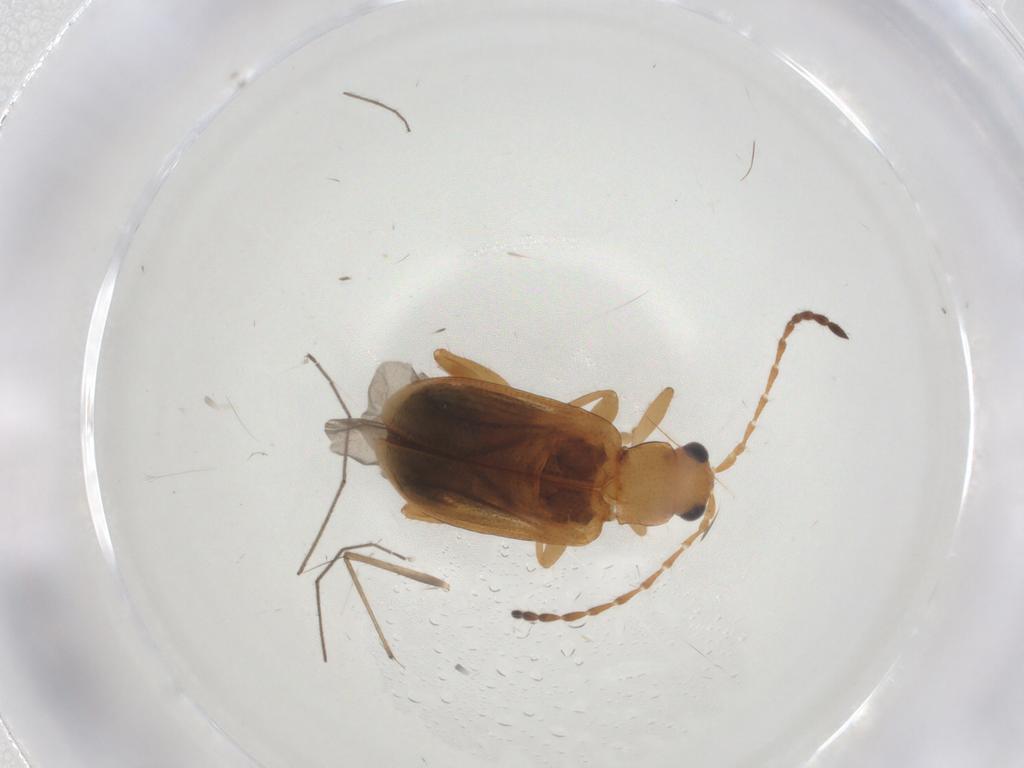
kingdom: Animalia
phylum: Arthropoda
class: Insecta
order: Coleoptera
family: Chrysomelidae
